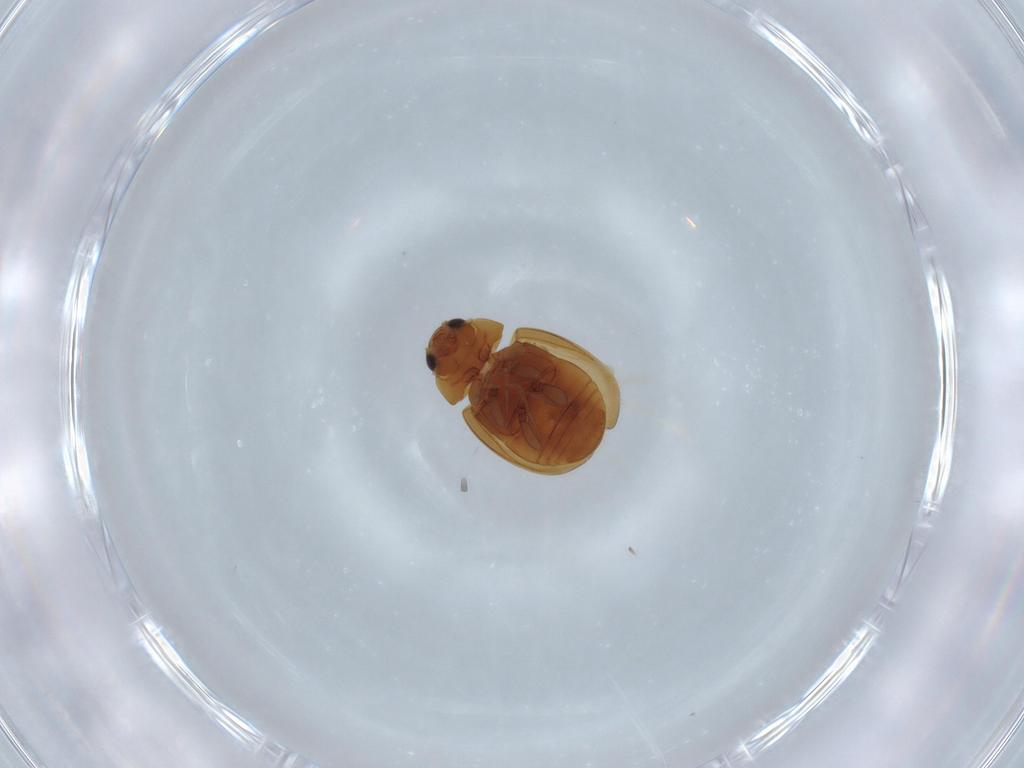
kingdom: Animalia
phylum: Arthropoda
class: Insecta
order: Coleoptera
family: Coccinellidae
